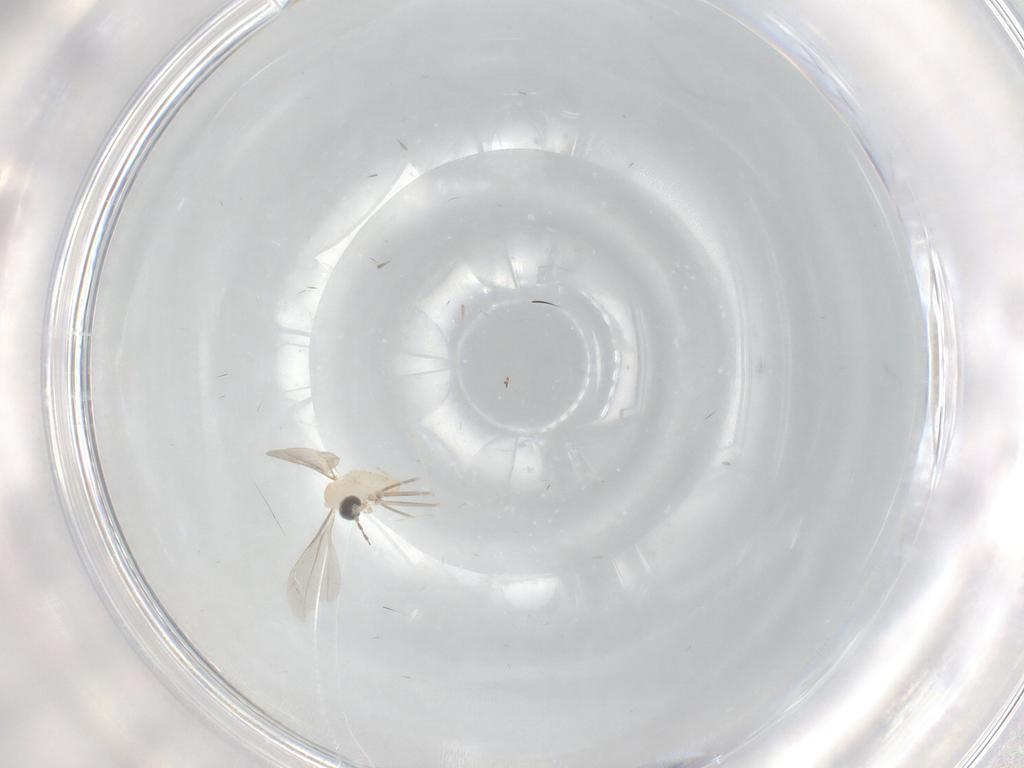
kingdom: Animalia
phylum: Arthropoda
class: Insecta
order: Diptera
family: Cecidomyiidae
